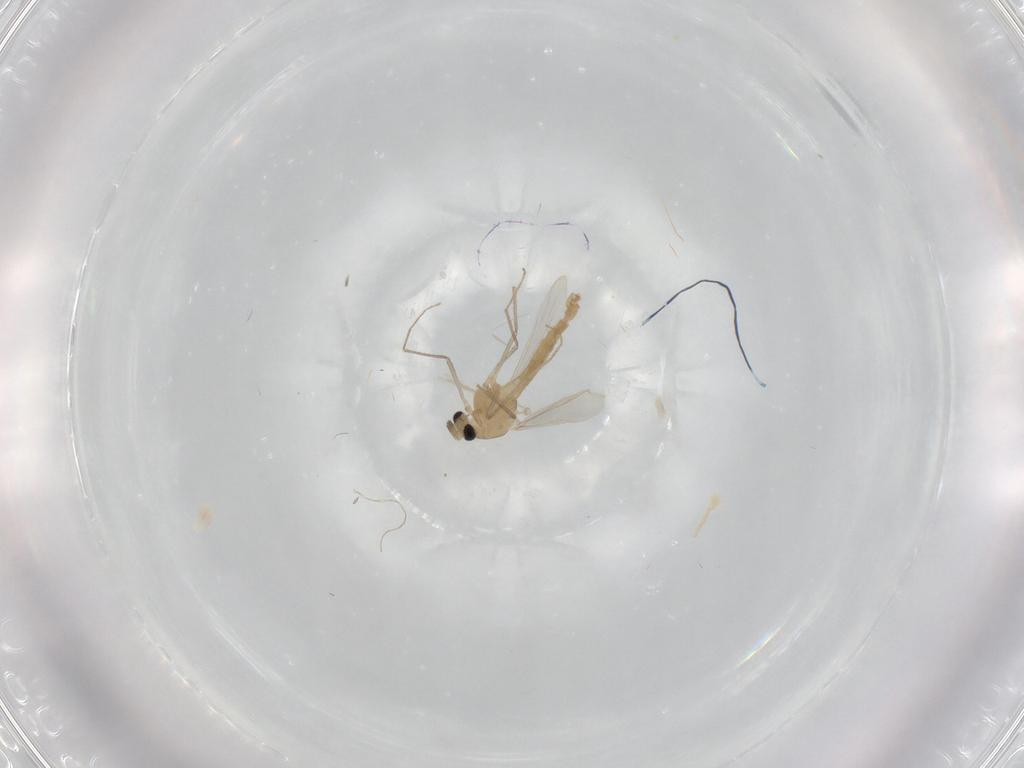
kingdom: Animalia
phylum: Arthropoda
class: Insecta
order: Diptera
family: Chironomidae
